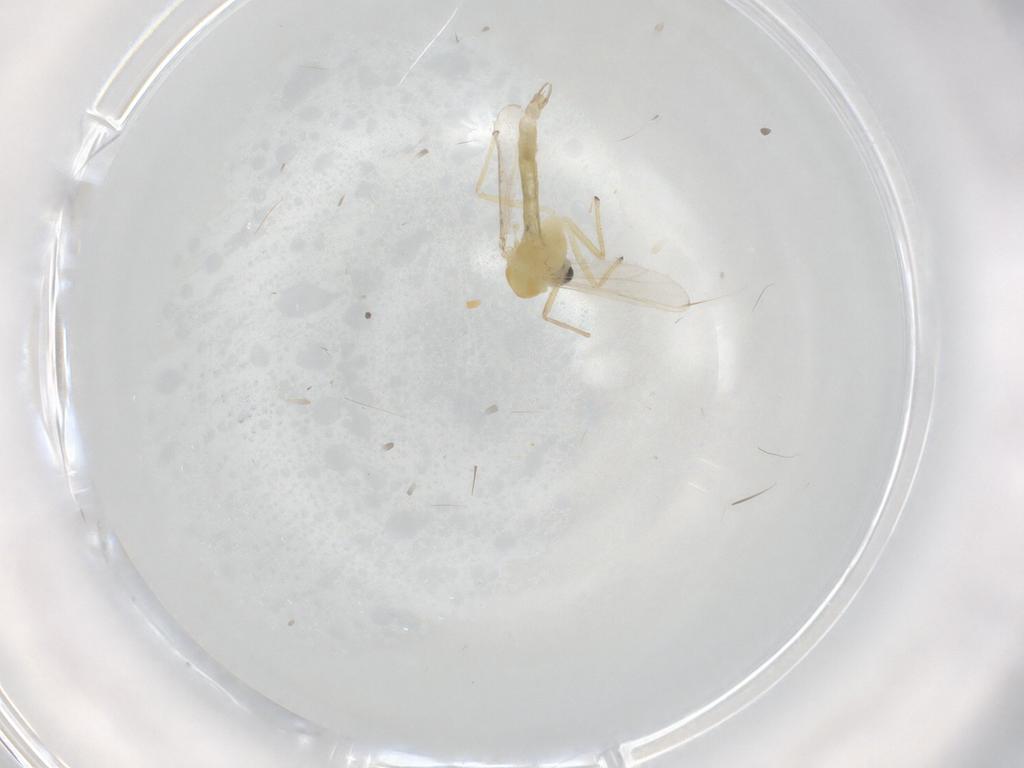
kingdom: Animalia
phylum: Arthropoda
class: Insecta
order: Diptera
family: Chironomidae
